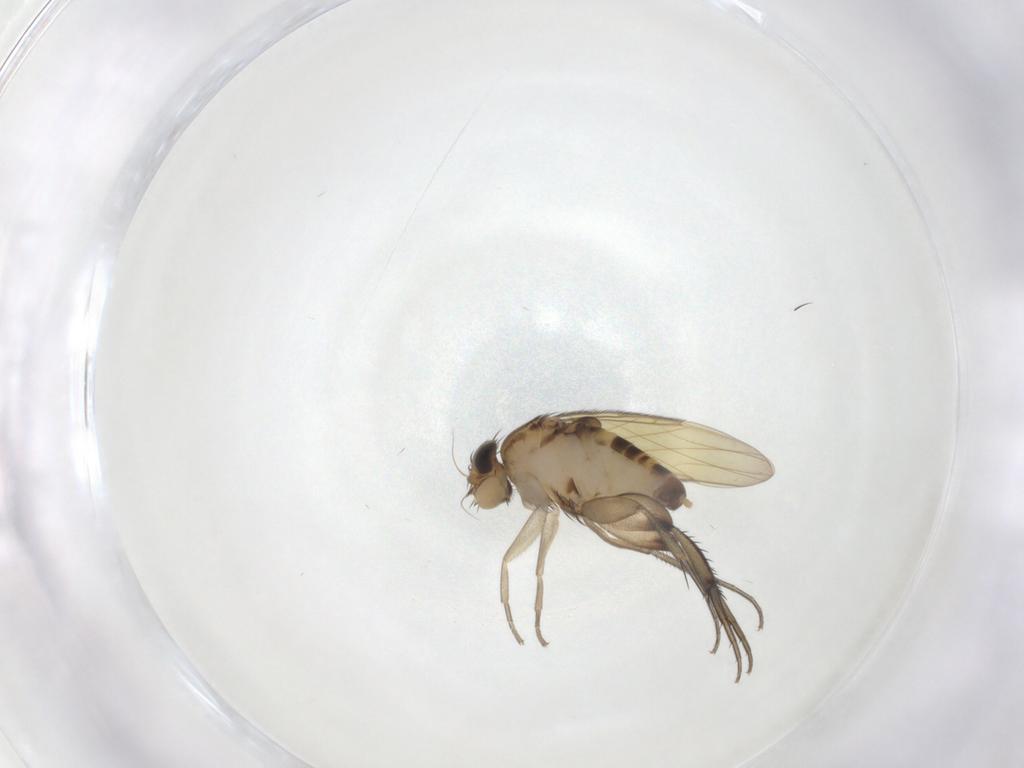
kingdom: Animalia
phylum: Arthropoda
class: Insecta
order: Diptera
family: Phoridae
